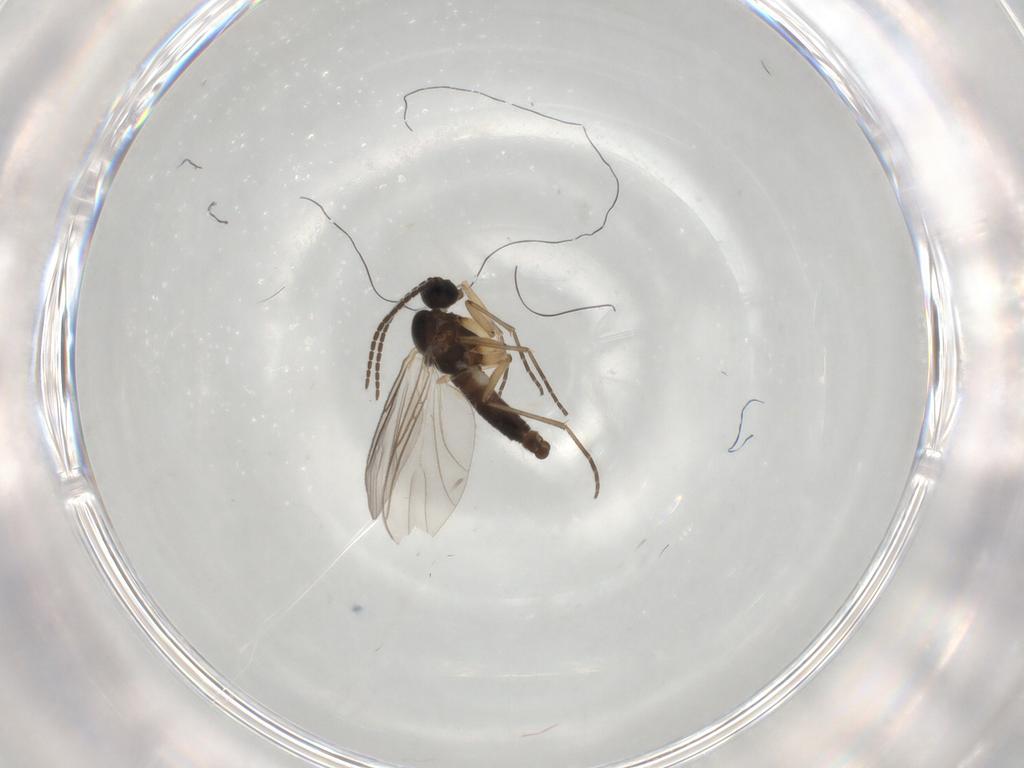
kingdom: Animalia
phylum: Arthropoda
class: Insecta
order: Diptera
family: Sciaridae
